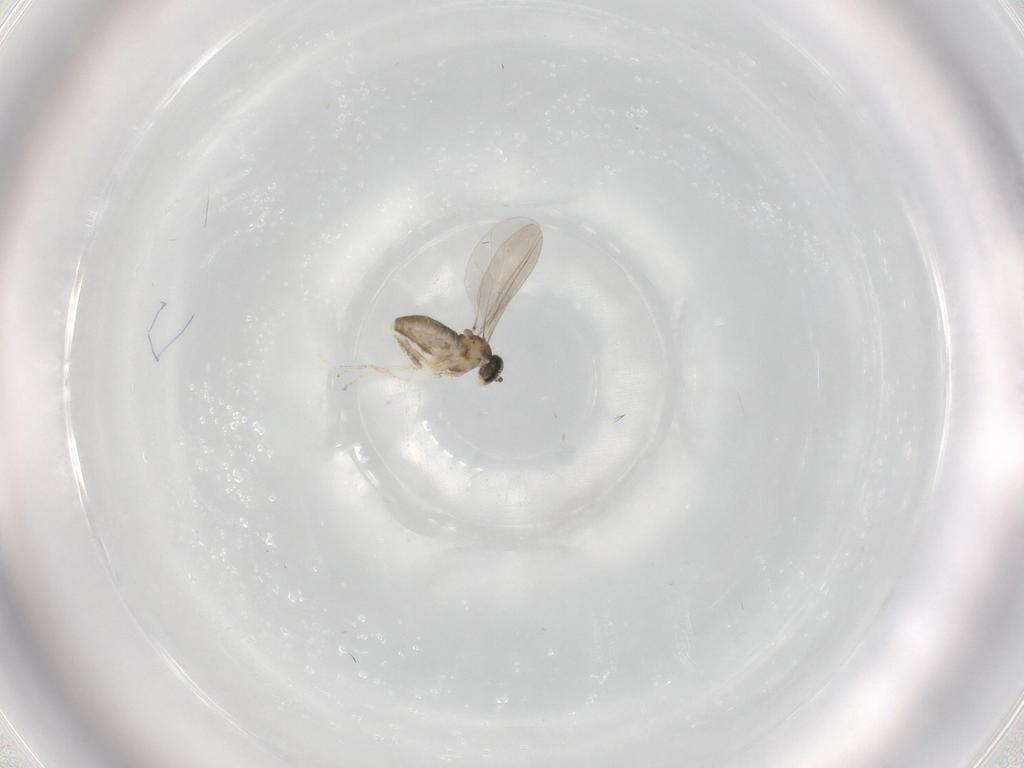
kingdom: Animalia
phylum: Arthropoda
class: Insecta
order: Diptera
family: Cecidomyiidae
